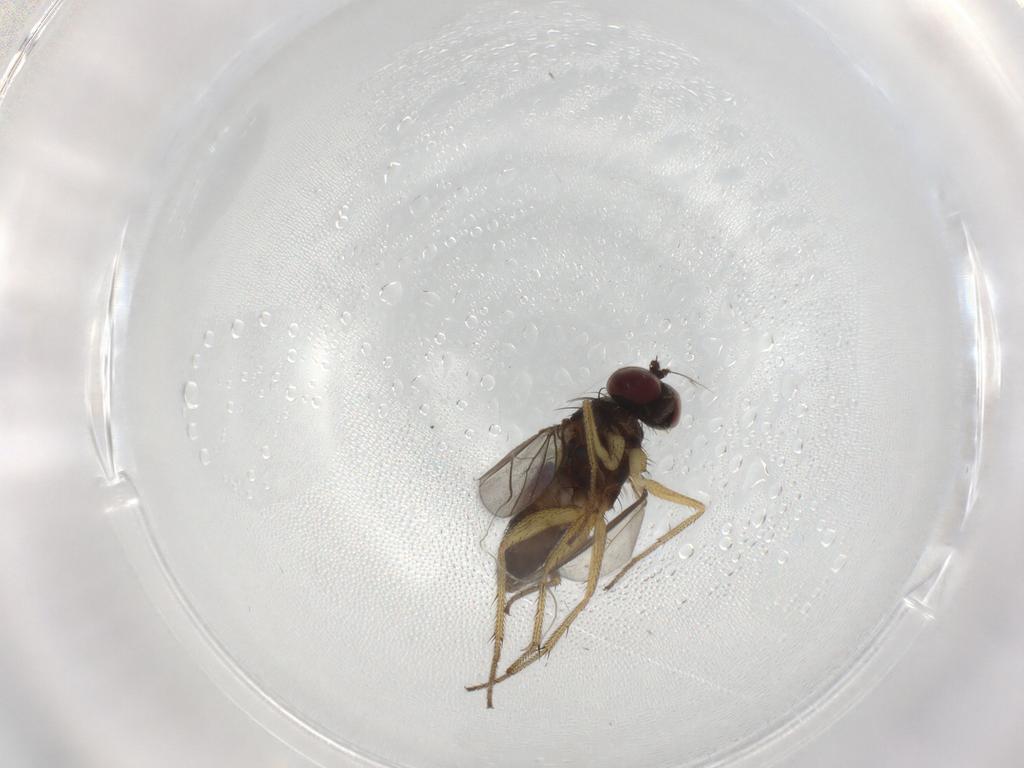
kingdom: Animalia
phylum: Arthropoda
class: Insecta
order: Diptera
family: Dolichopodidae
